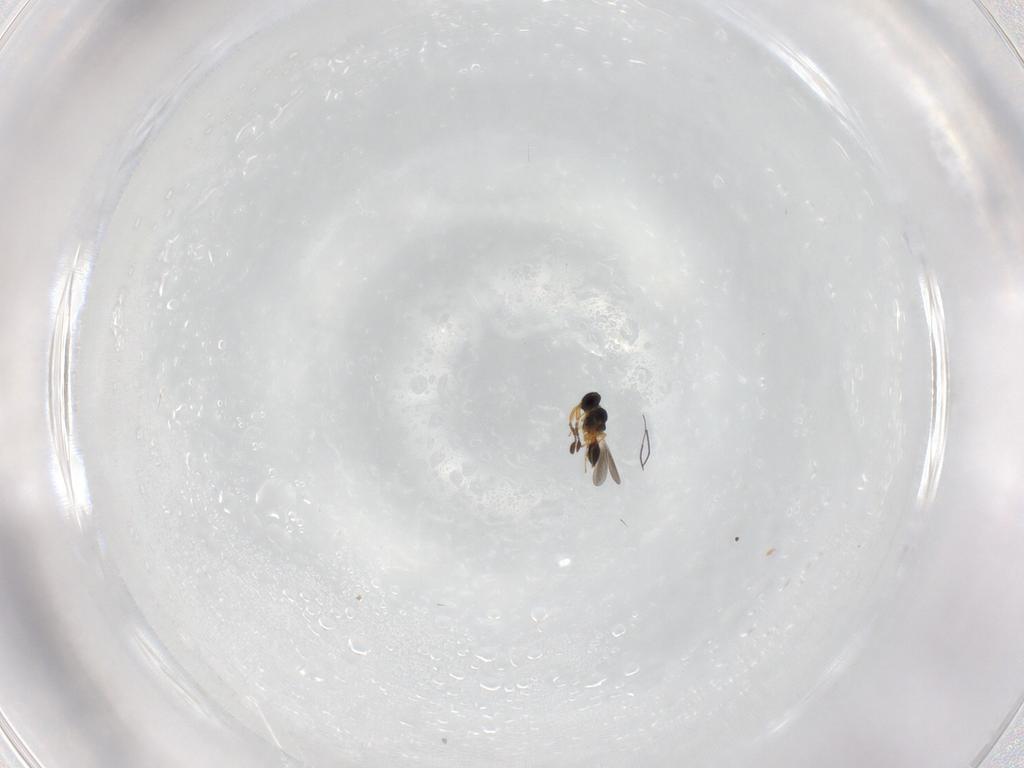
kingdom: Animalia
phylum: Arthropoda
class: Insecta
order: Hymenoptera
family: Platygastridae
